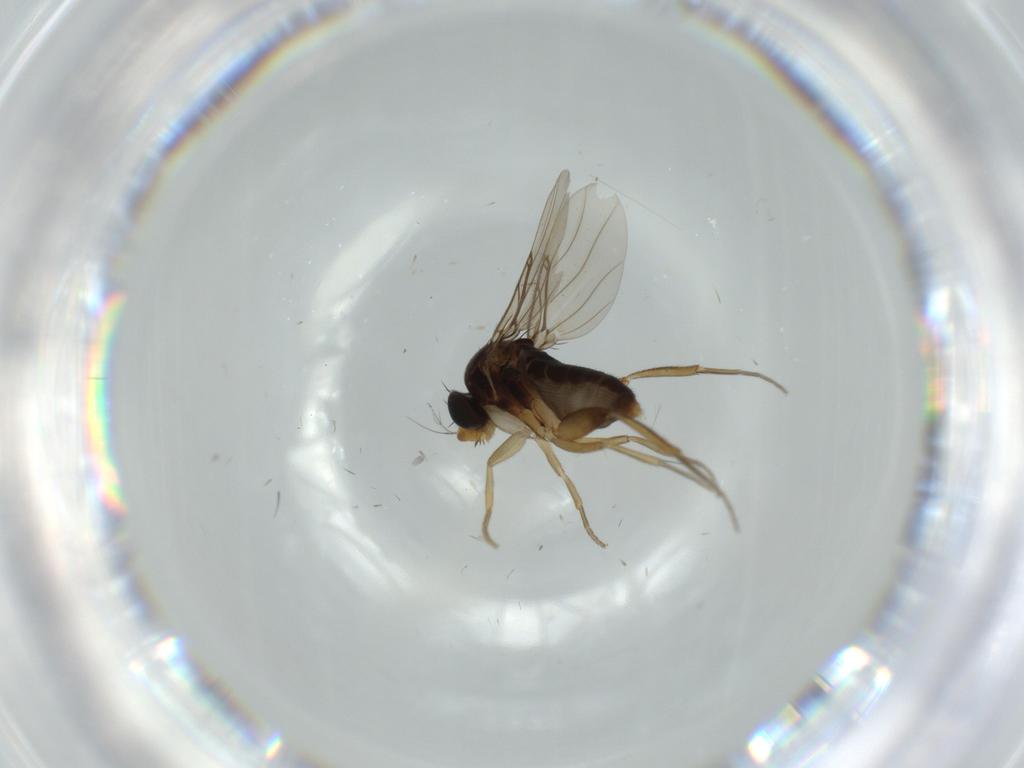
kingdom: Animalia
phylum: Arthropoda
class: Insecta
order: Diptera
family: Phoridae
